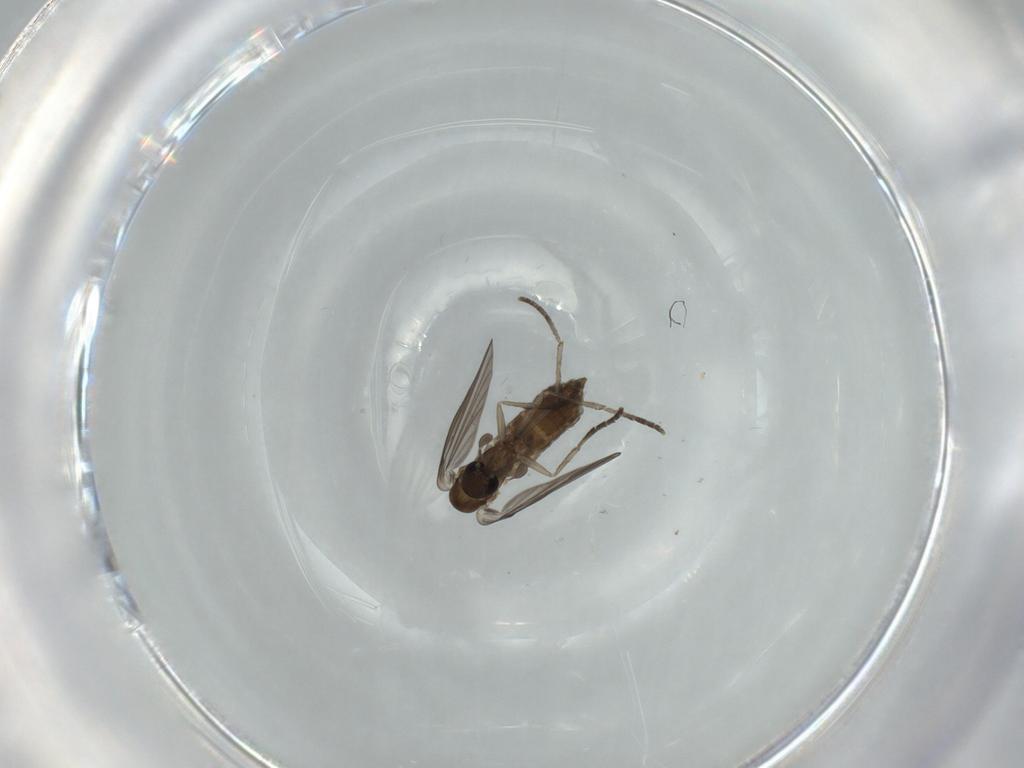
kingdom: Animalia
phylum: Arthropoda
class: Insecta
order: Diptera
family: Psychodidae
